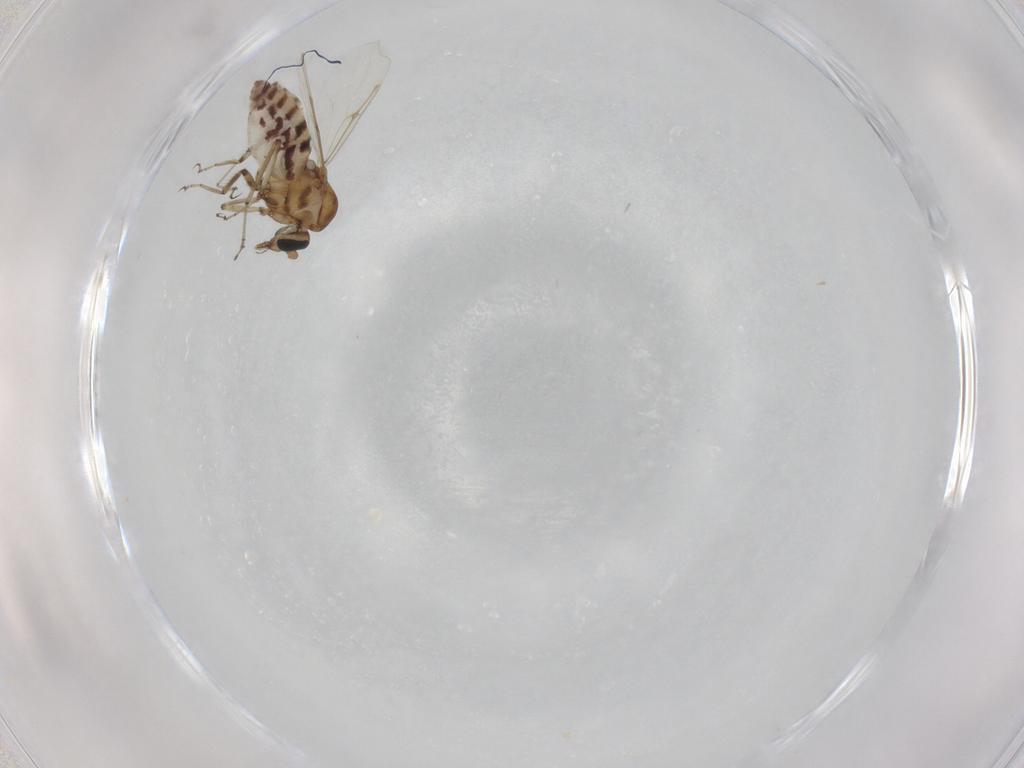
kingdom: Animalia
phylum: Arthropoda
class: Insecta
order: Diptera
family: Ceratopogonidae
